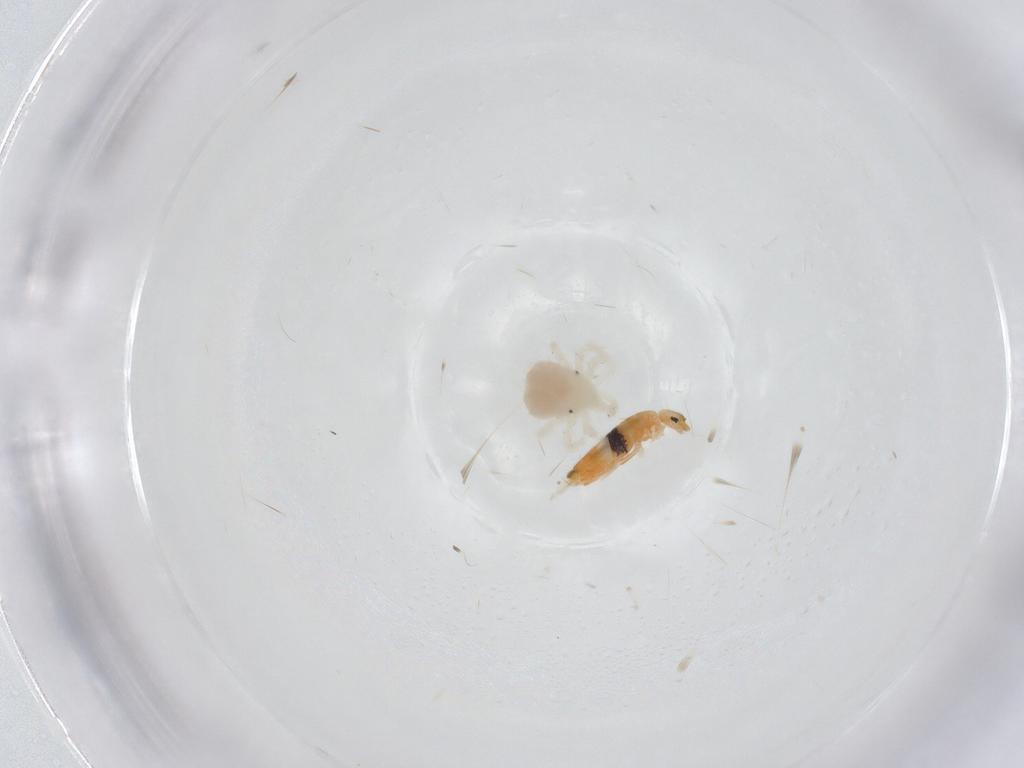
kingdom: Animalia
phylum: Arthropoda
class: Arachnida
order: Trombidiformes
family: Anystidae
